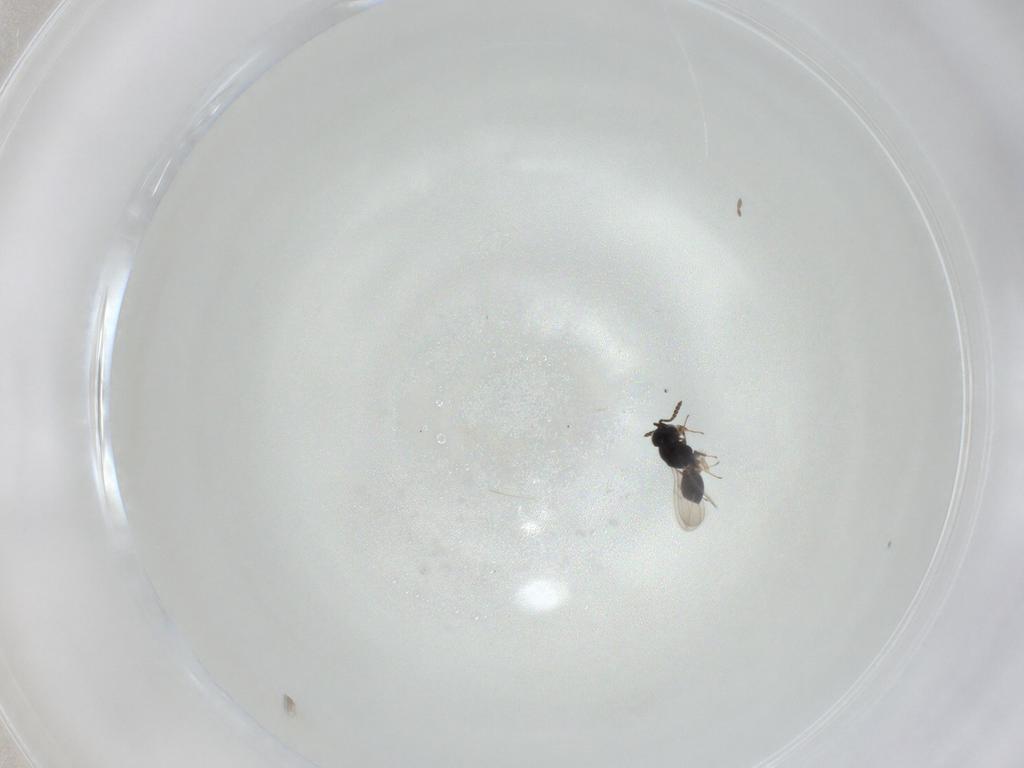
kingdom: Animalia
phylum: Arthropoda
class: Insecta
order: Hymenoptera
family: Scelionidae
